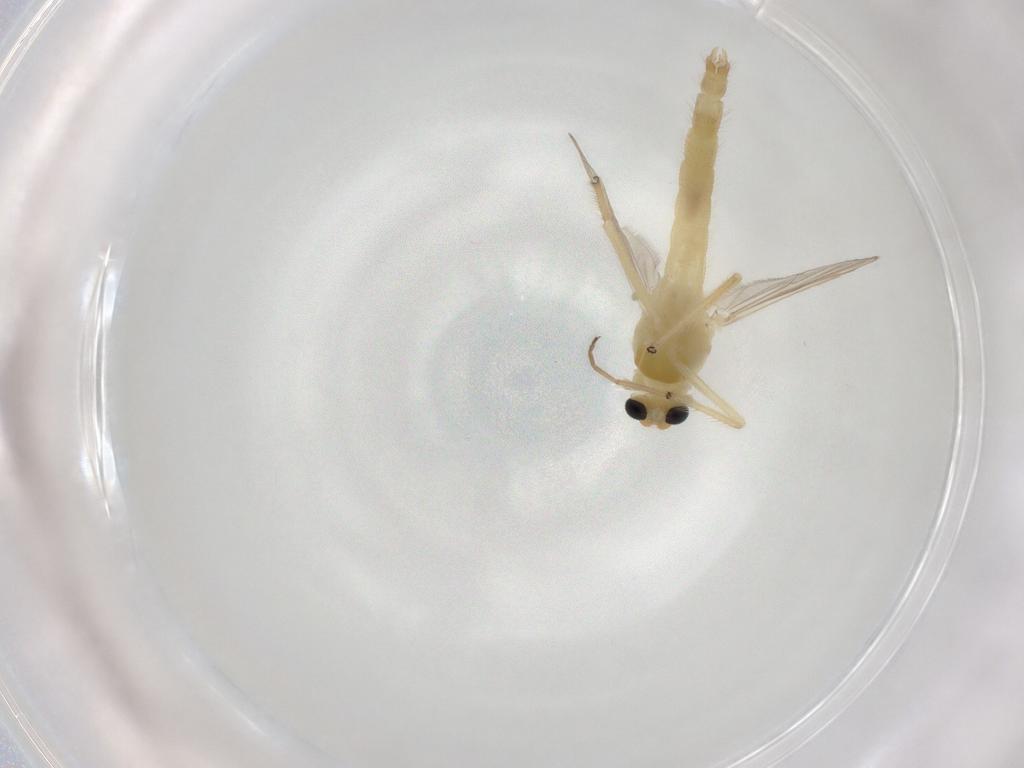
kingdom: Animalia
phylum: Arthropoda
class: Insecta
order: Diptera
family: Chironomidae
